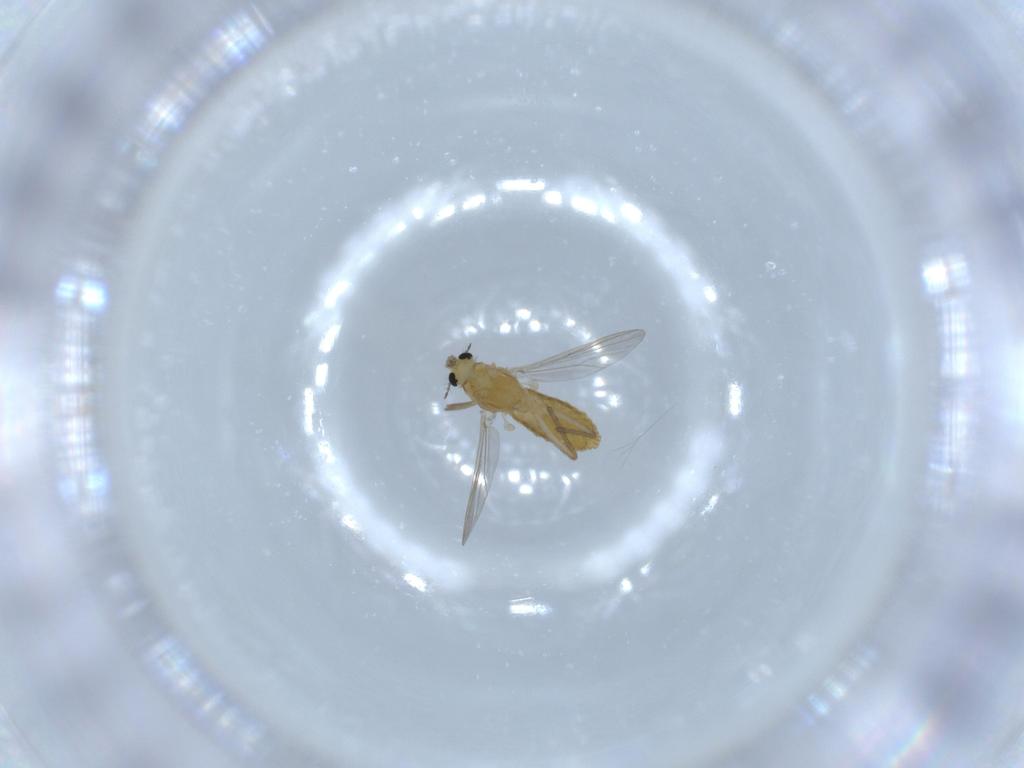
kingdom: Animalia
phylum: Arthropoda
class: Insecta
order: Diptera
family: Chironomidae
